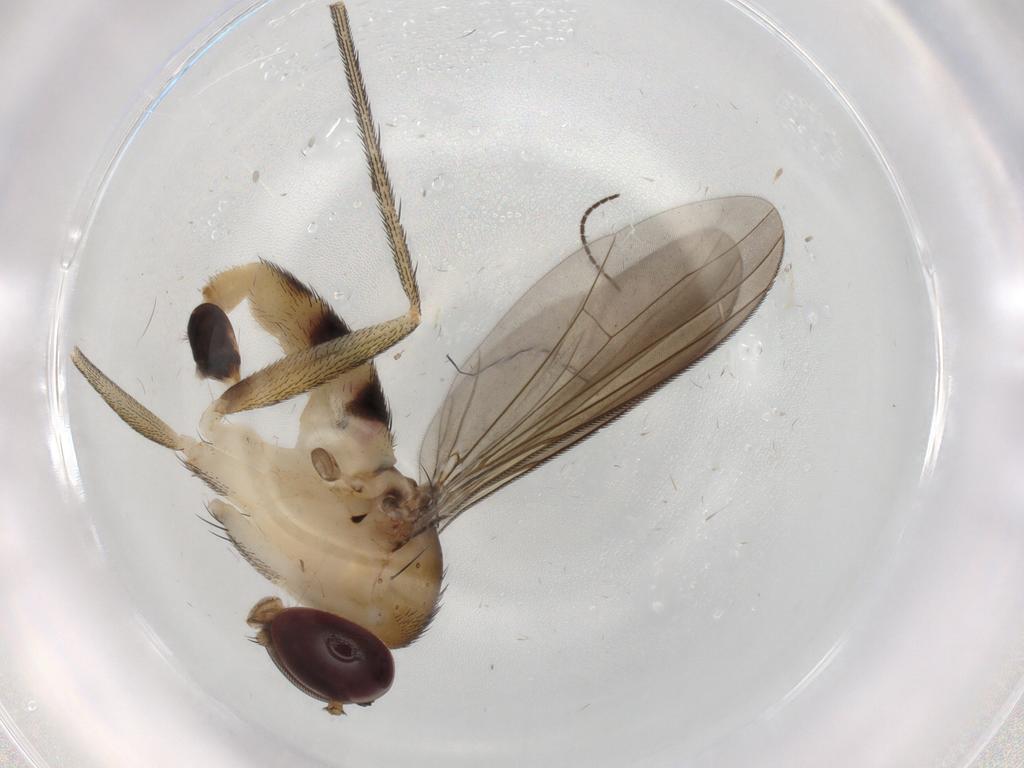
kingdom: Animalia
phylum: Arthropoda
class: Insecta
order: Diptera
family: Dolichopodidae
